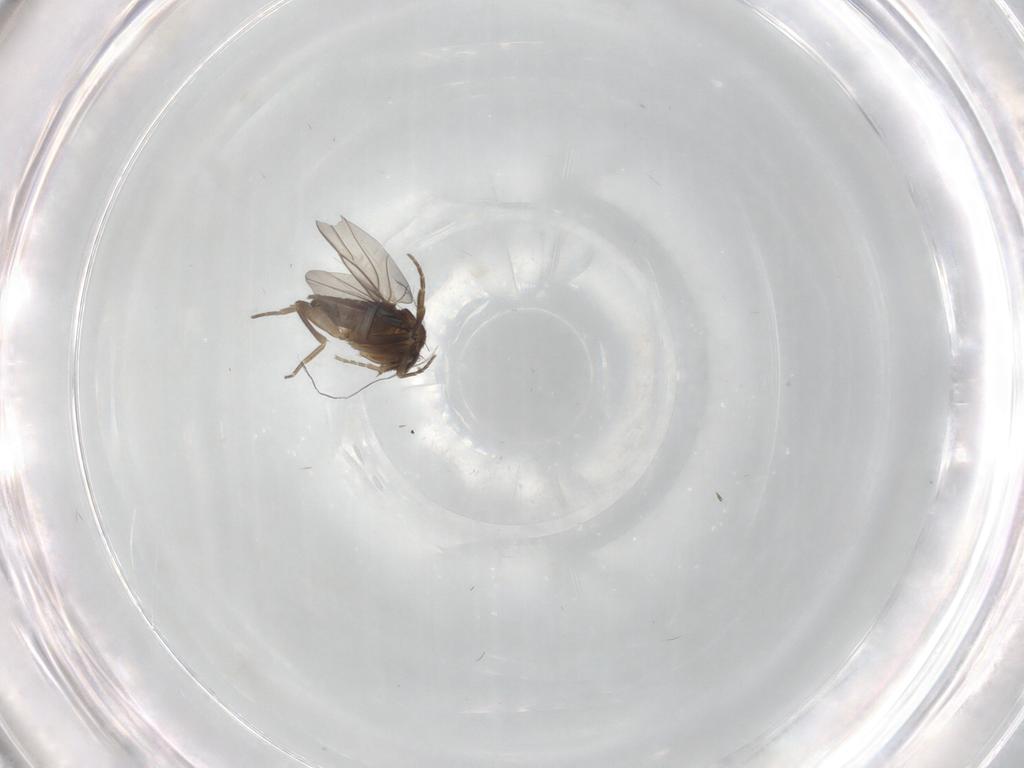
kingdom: Animalia
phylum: Arthropoda
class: Insecta
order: Diptera
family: Phoridae
